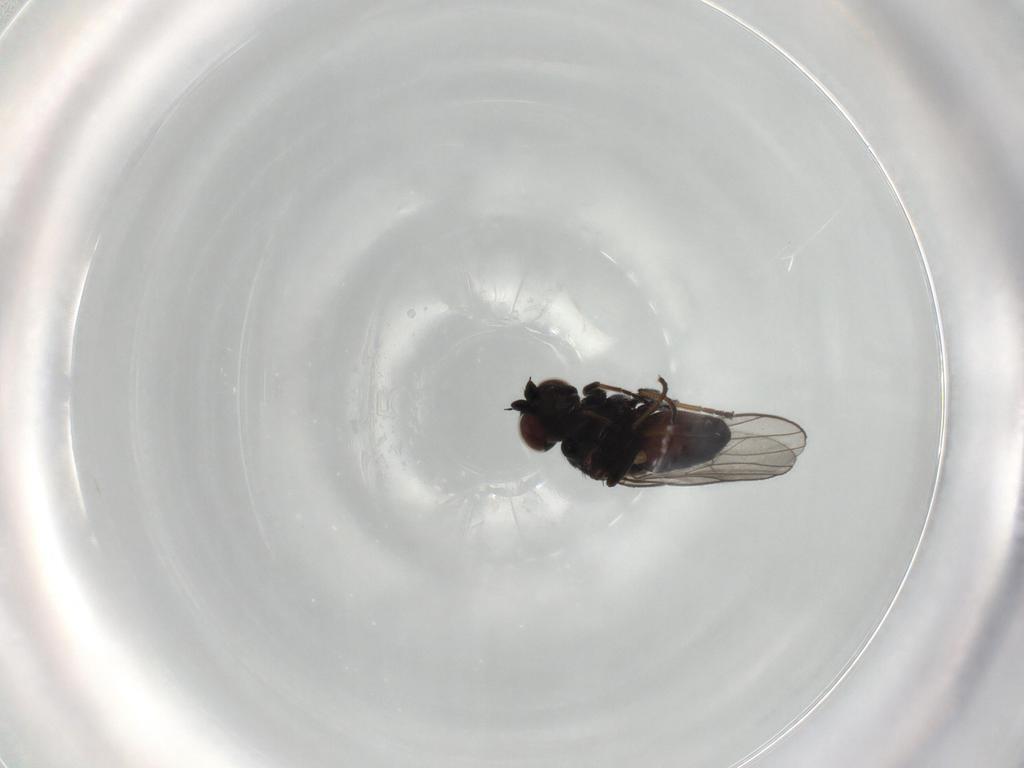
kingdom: Animalia
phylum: Arthropoda
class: Insecta
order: Diptera
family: Chloropidae
